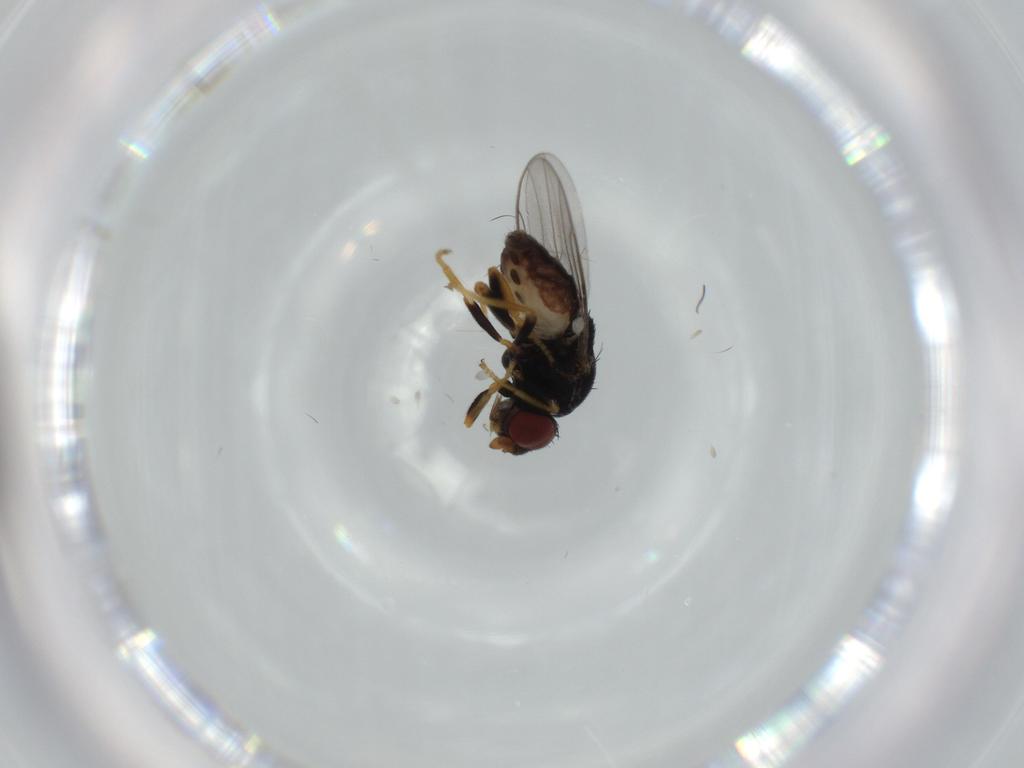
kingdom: Animalia
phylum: Arthropoda
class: Insecta
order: Diptera
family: Chloropidae
